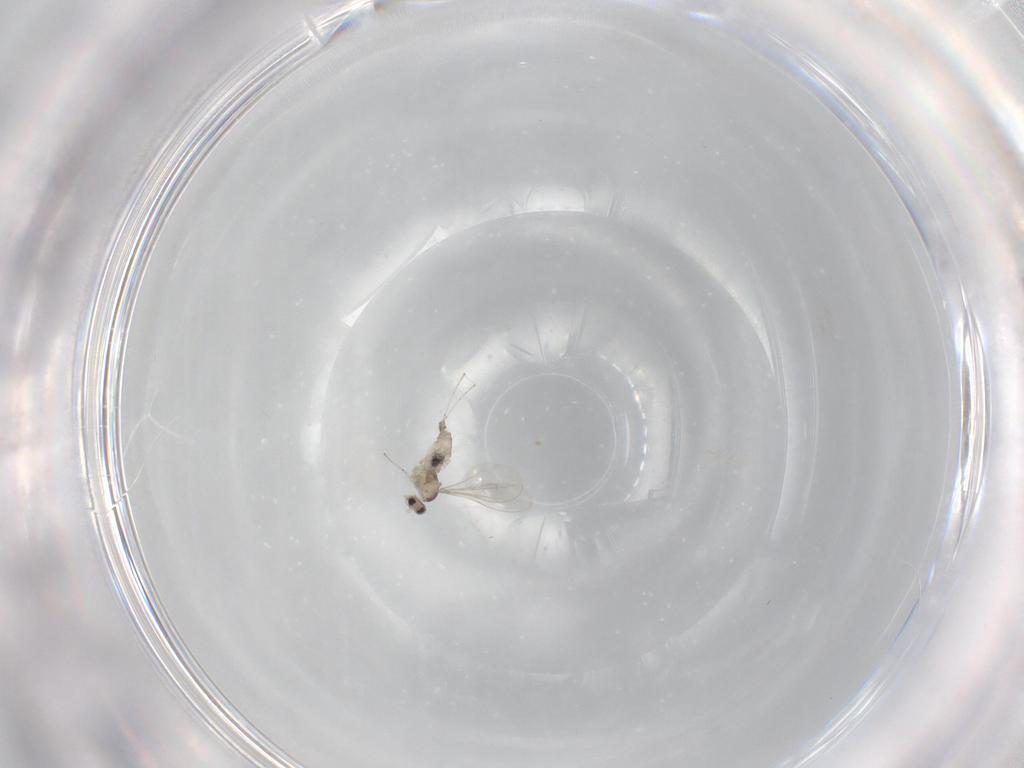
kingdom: Animalia
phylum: Arthropoda
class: Insecta
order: Diptera
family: Cecidomyiidae
